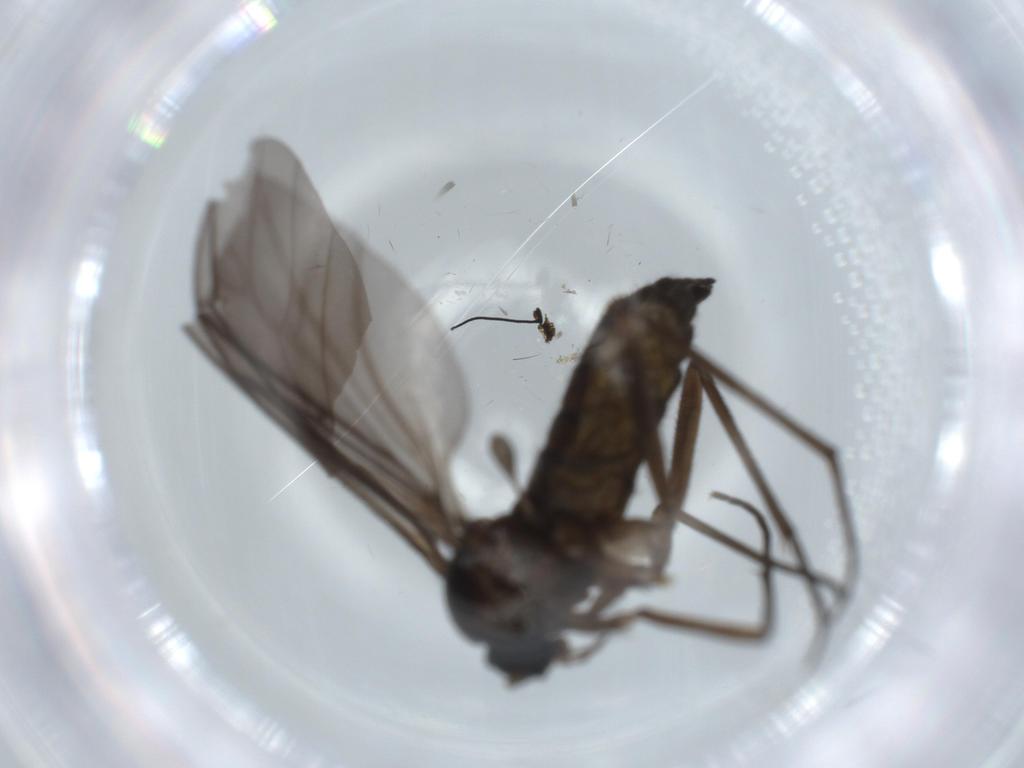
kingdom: Animalia
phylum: Arthropoda
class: Insecta
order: Diptera
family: Sciaridae
